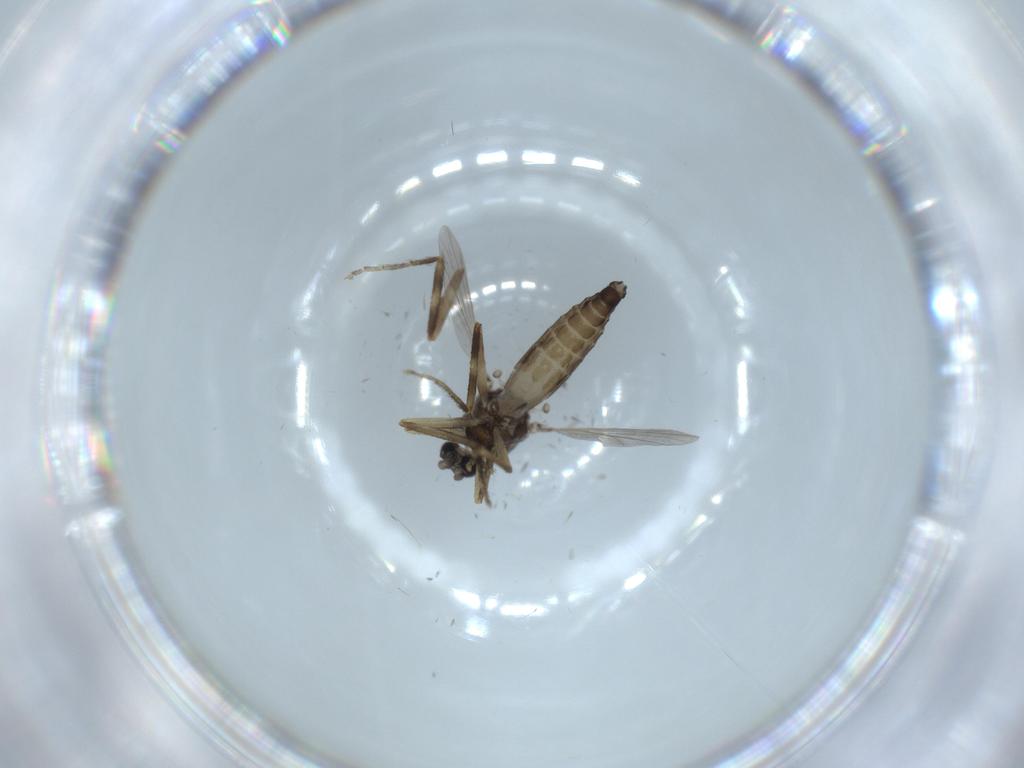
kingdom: Animalia
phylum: Arthropoda
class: Insecta
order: Diptera
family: Ceratopogonidae
